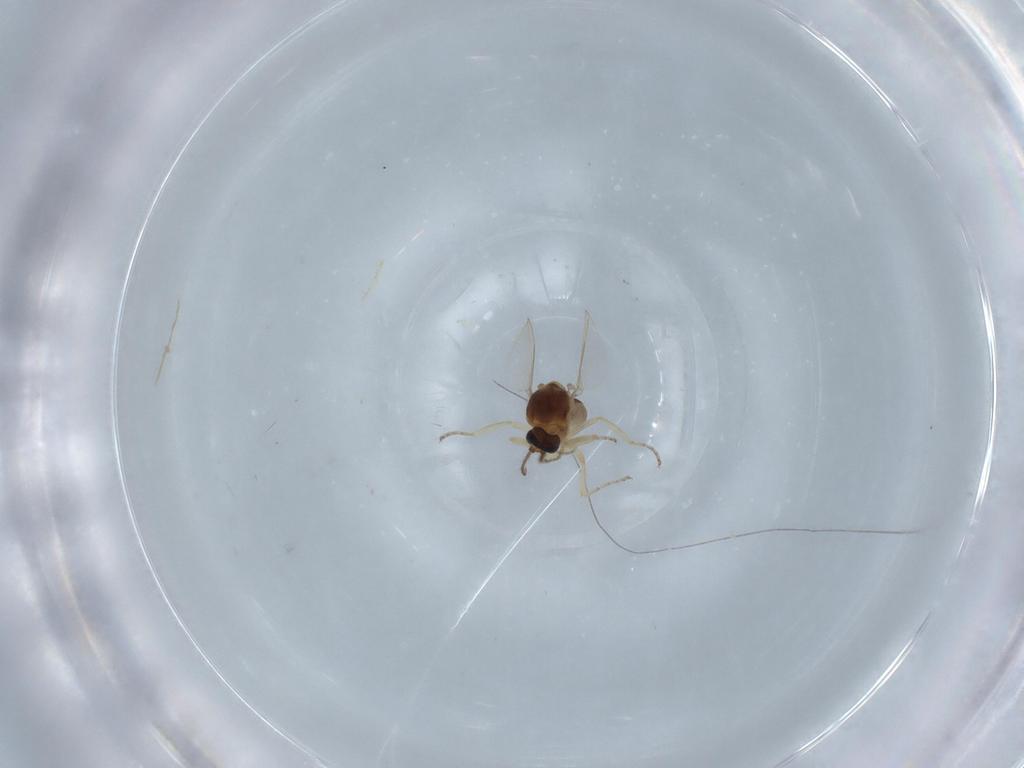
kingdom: Animalia
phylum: Arthropoda
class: Insecta
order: Diptera
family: Ceratopogonidae
